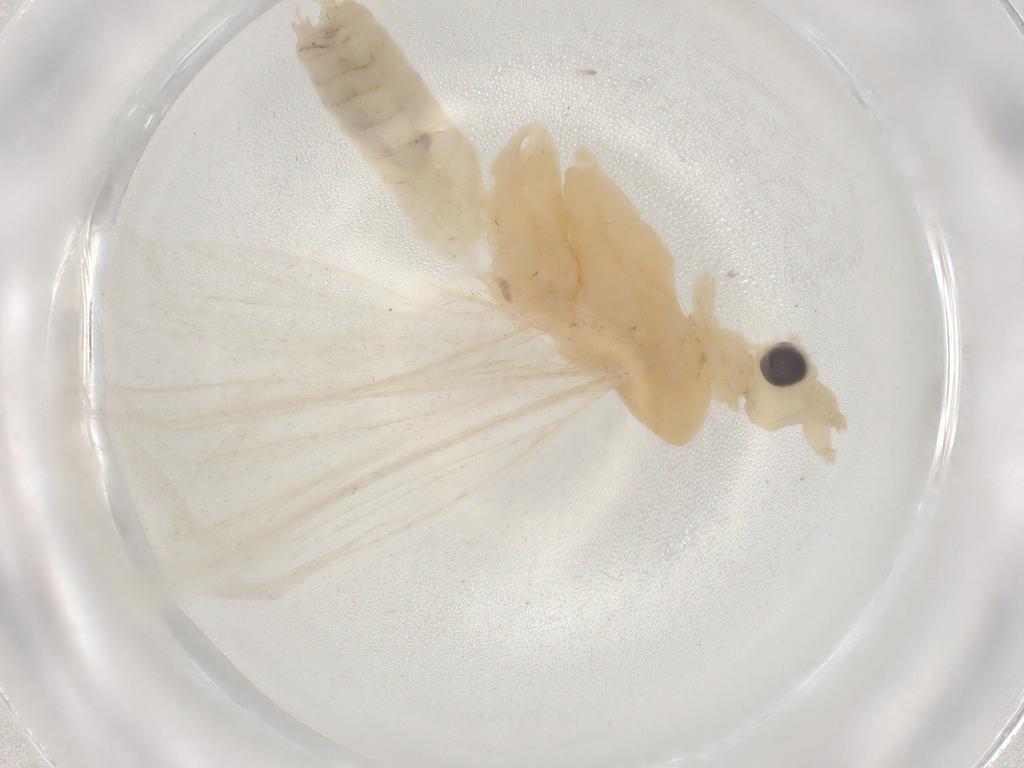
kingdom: Animalia
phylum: Arthropoda
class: Insecta
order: Trichoptera
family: Leptoceridae
